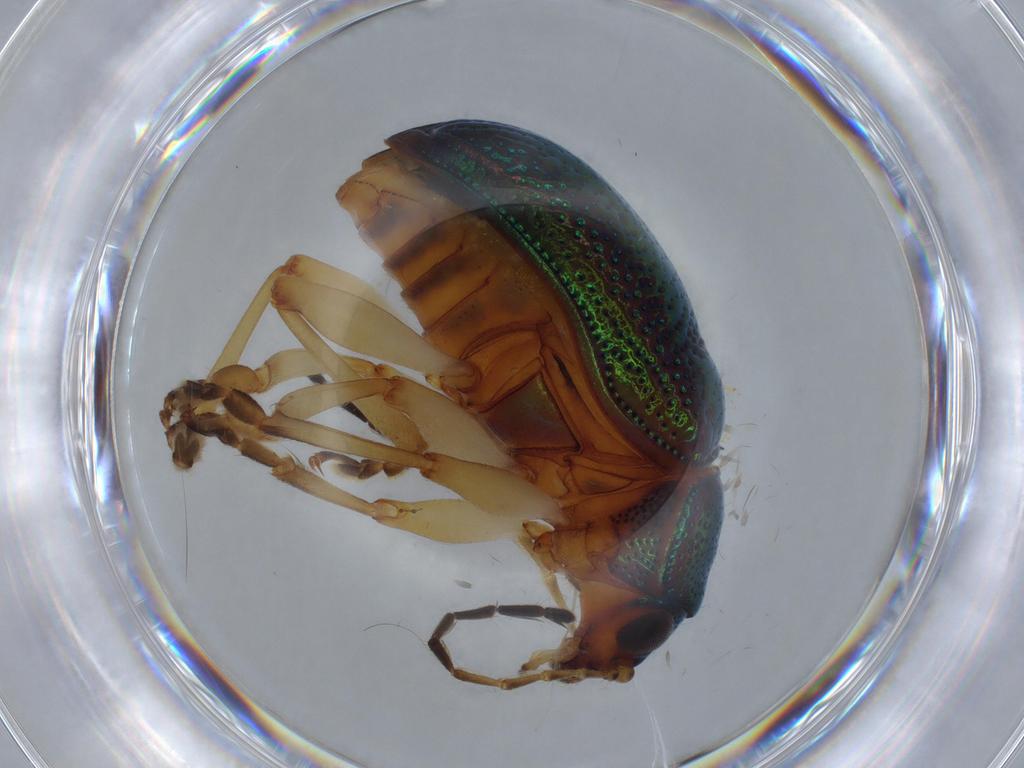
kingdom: Animalia
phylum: Arthropoda
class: Insecta
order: Coleoptera
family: Chrysomelidae
